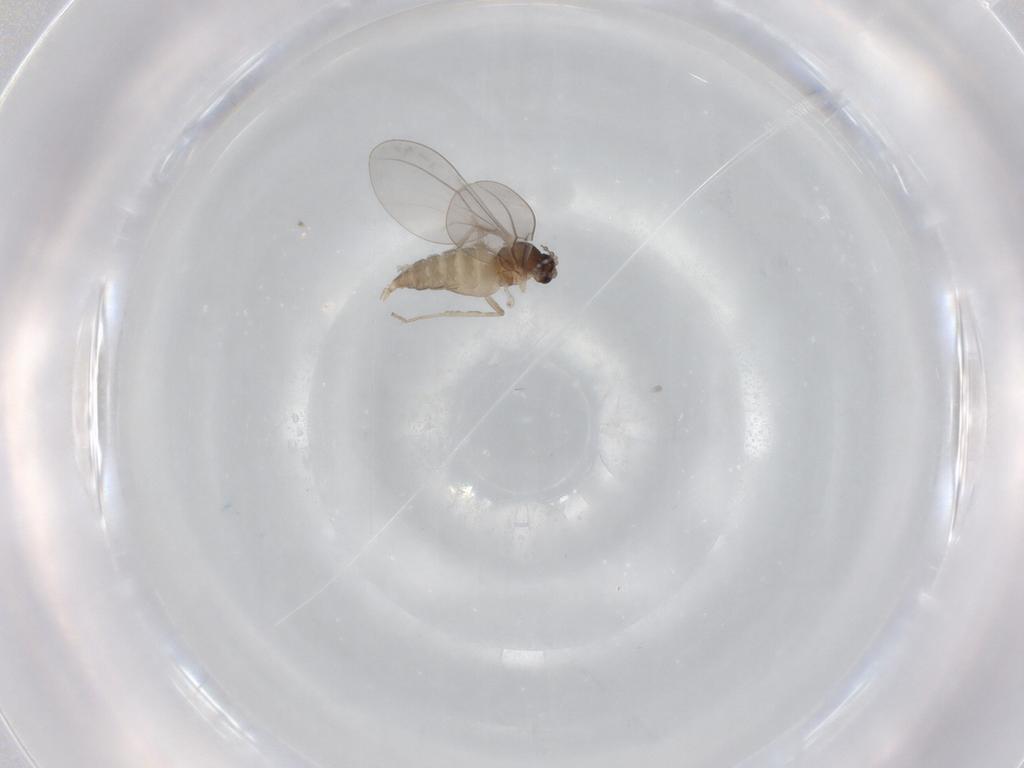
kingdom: Animalia
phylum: Arthropoda
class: Insecta
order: Diptera
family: Cecidomyiidae
